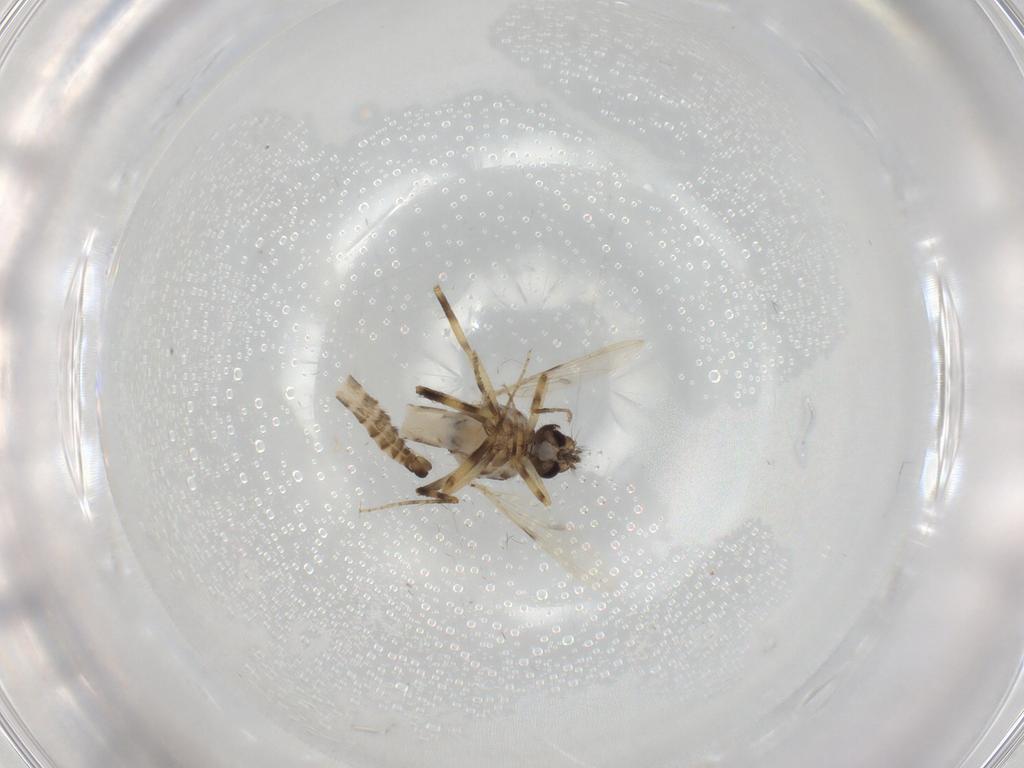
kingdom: Animalia
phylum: Arthropoda
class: Insecta
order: Diptera
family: Ceratopogonidae
